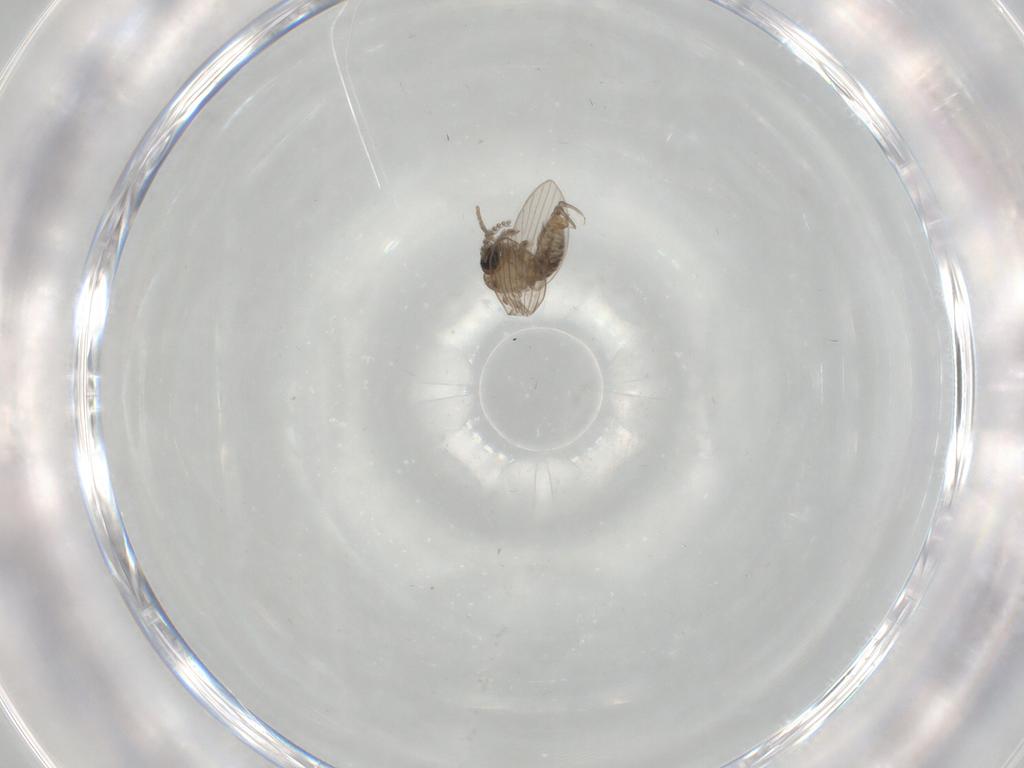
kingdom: Animalia
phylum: Arthropoda
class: Insecta
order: Diptera
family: Psychodidae
